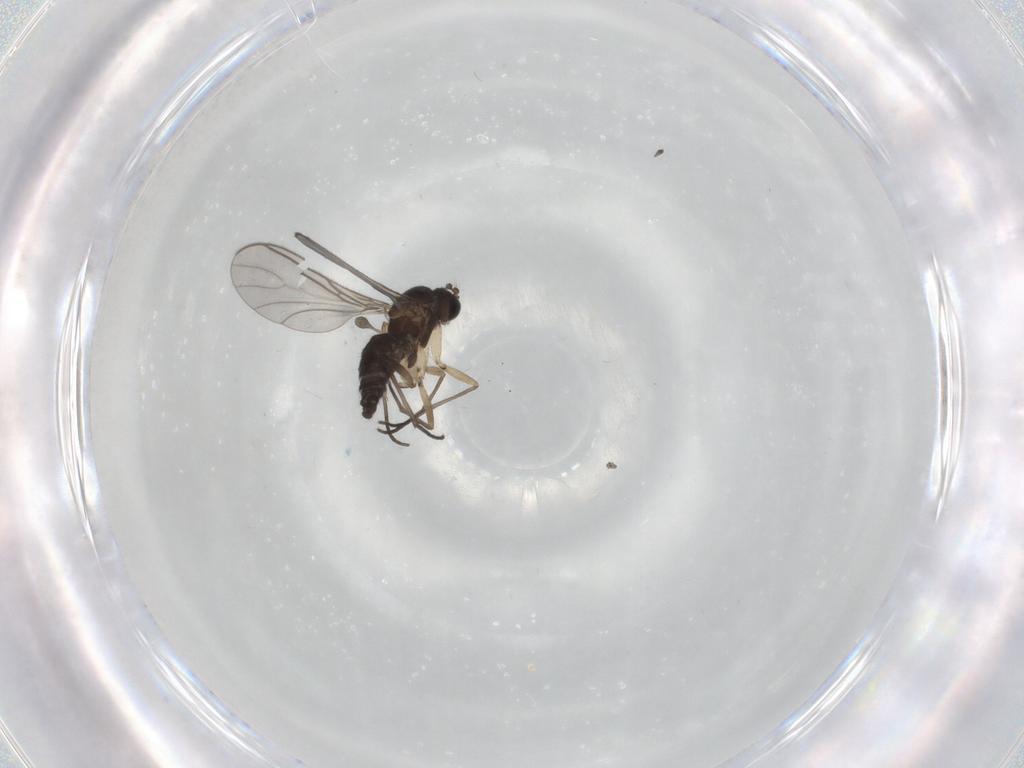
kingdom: Animalia
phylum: Arthropoda
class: Insecta
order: Diptera
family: Sciaridae
